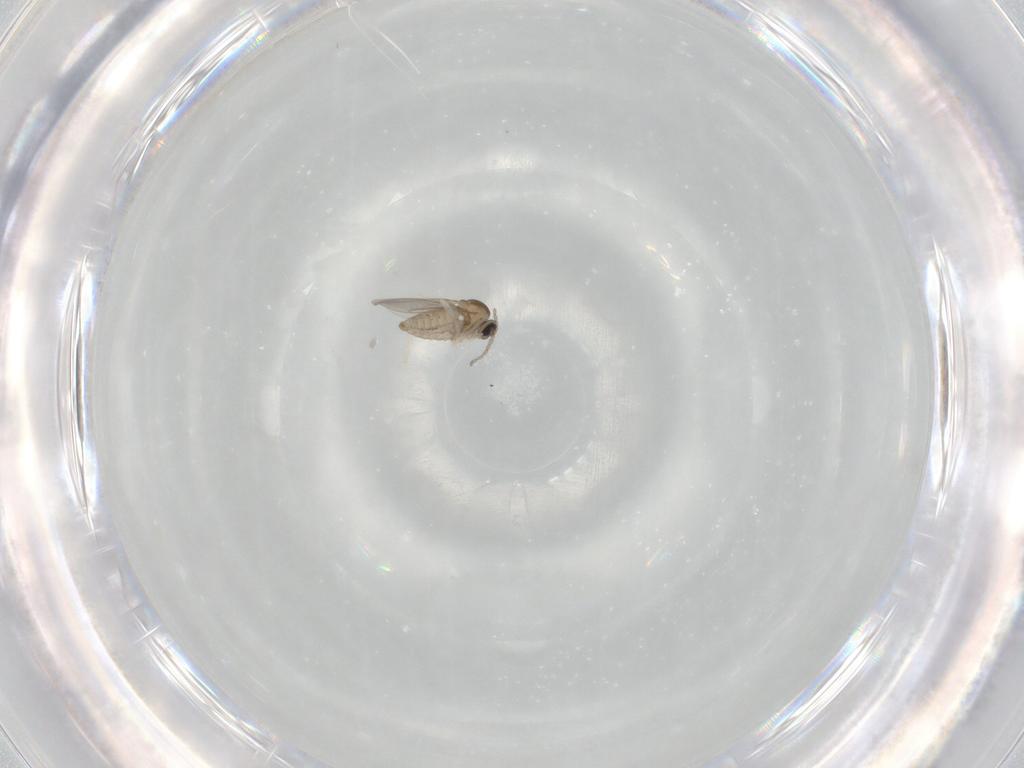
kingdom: Animalia
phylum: Arthropoda
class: Insecta
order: Diptera
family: Cecidomyiidae
